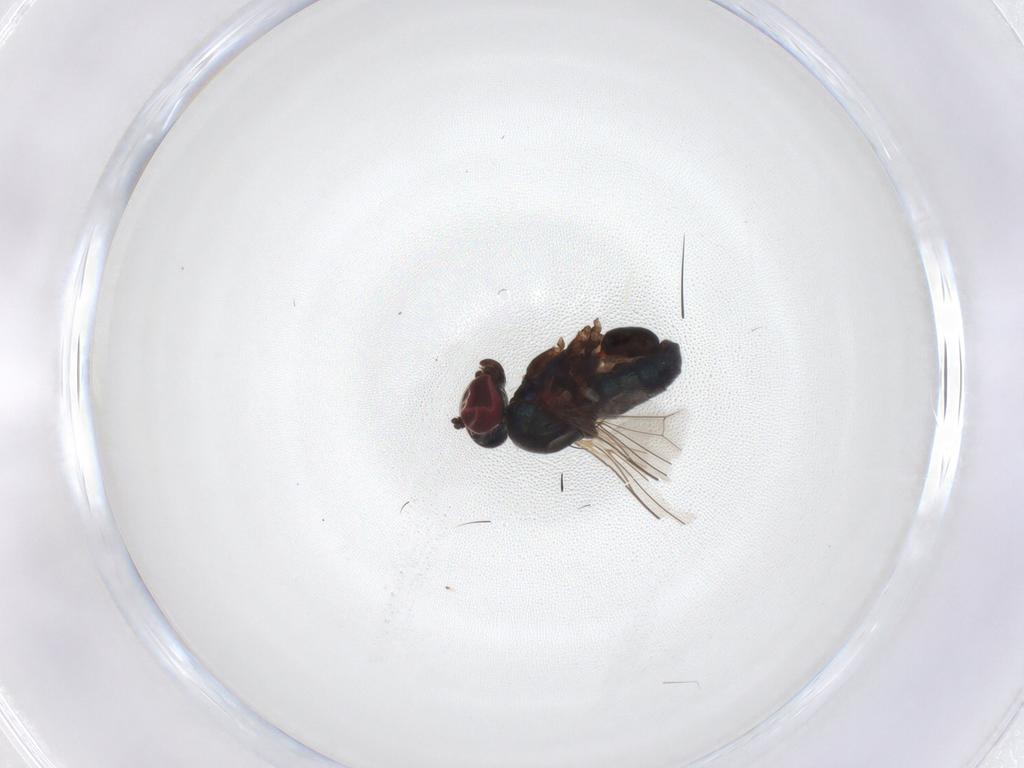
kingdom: Animalia
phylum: Arthropoda
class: Insecta
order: Diptera
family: Dolichopodidae
